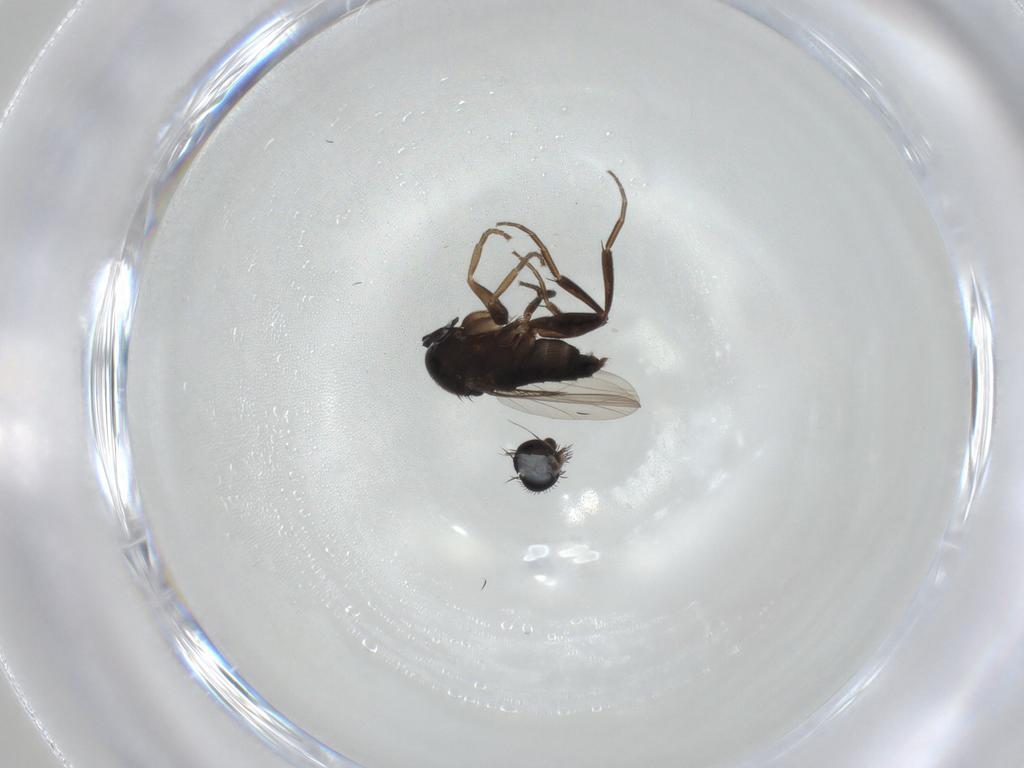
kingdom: Animalia
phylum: Arthropoda
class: Insecta
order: Diptera
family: Phoridae
